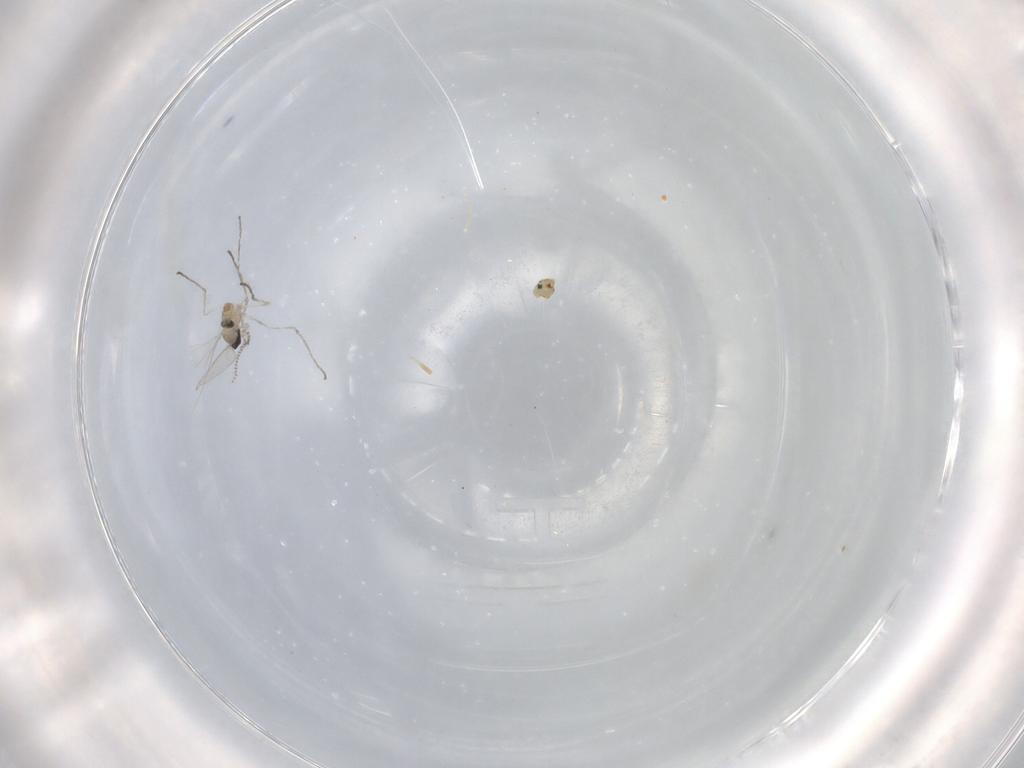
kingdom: Animalia
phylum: Arthropoda
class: Insecta
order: Diptera
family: Cecidomyiidae
